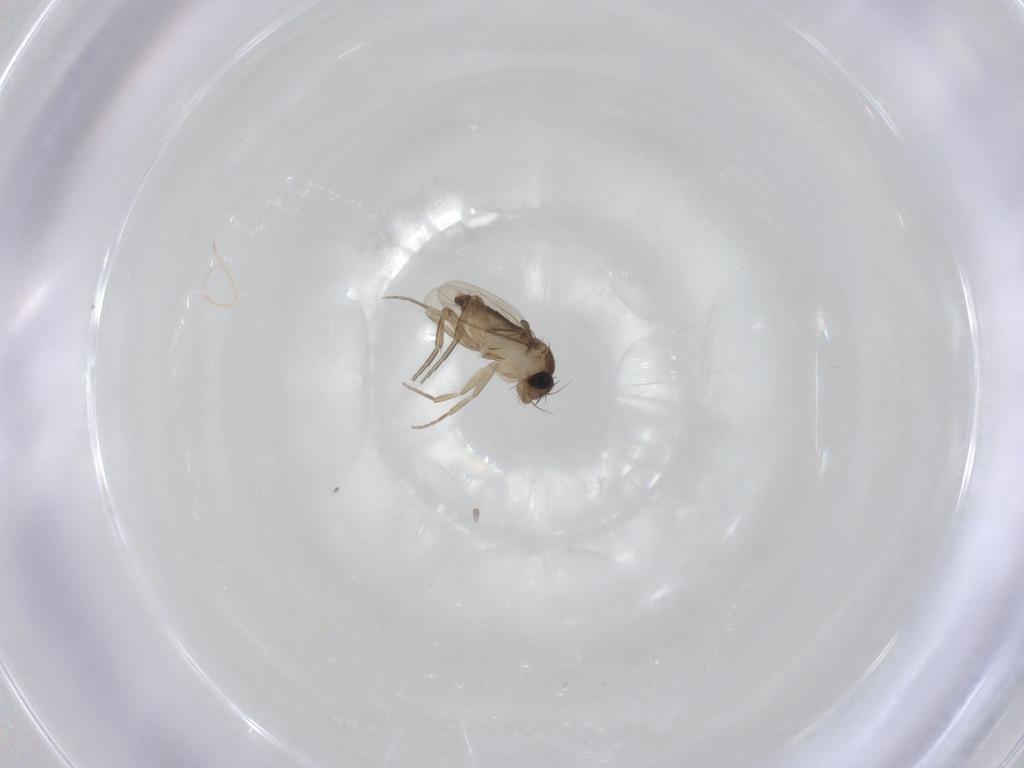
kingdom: Animalia
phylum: Arthropoda
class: Insecta
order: Diptera
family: Phoridae
